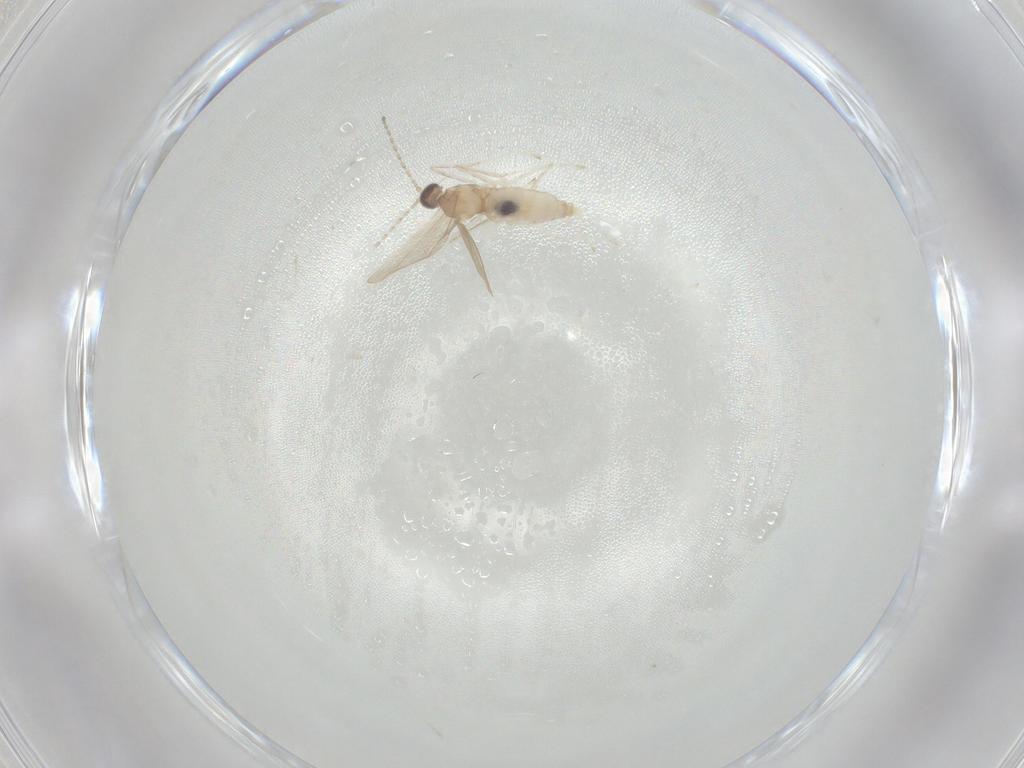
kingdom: Animalia
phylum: Arthropoda
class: Insecta
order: Diptera
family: Cecidomyiidae
